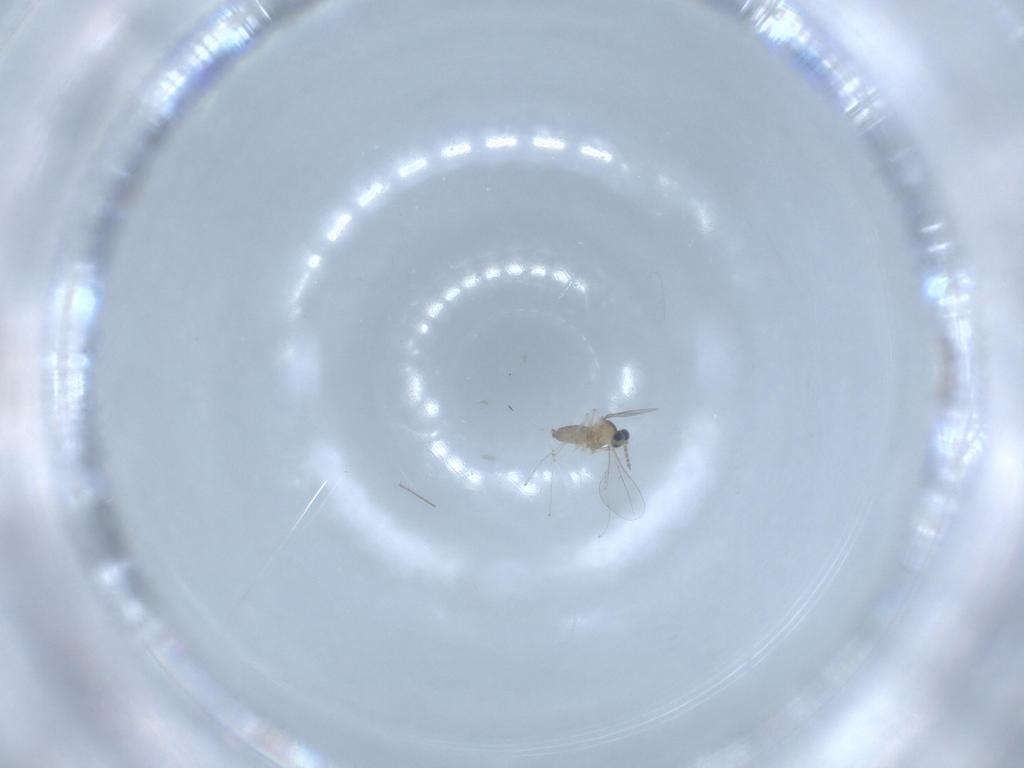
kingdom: Animalia
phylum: Arthropoda
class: Insecta
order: Diptera
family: Cecidomyiidae
